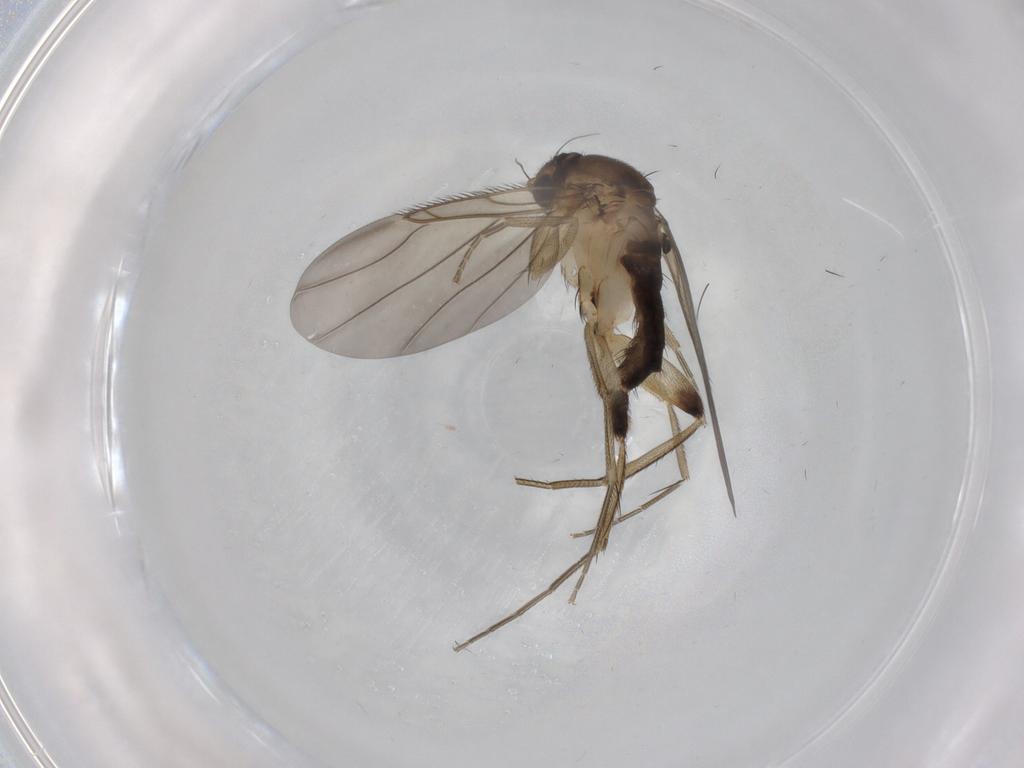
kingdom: Animalia
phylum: Arthropoda
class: Insecta
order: Diptera
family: Phoridae
